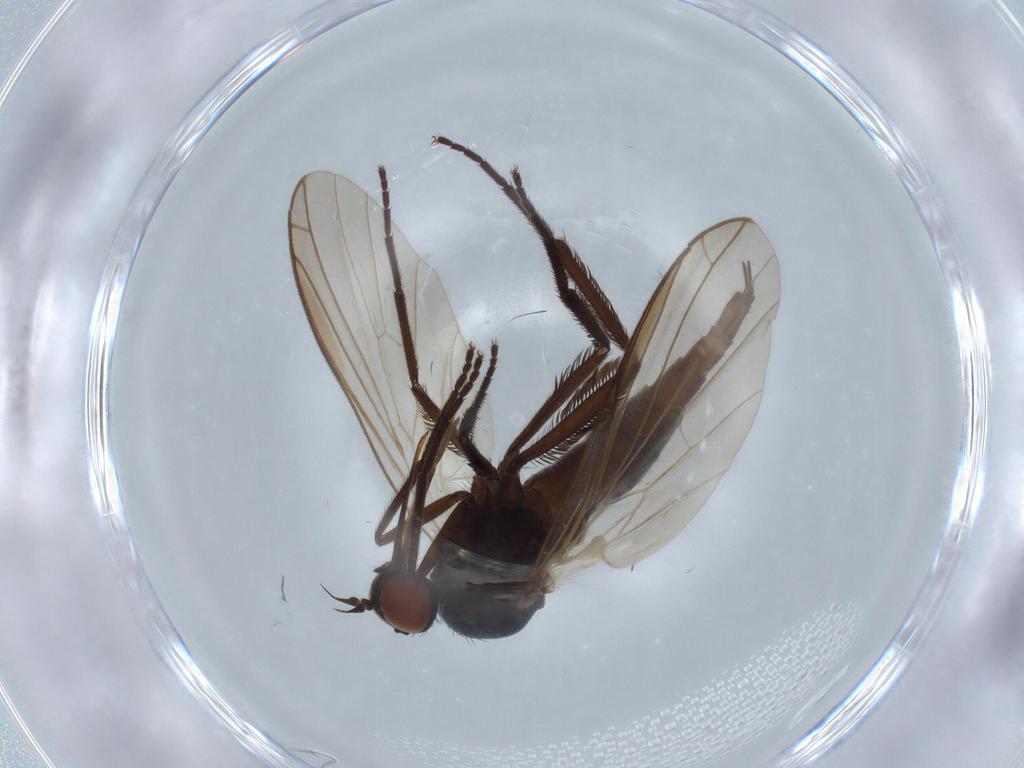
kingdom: Animalia
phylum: Arthropoda
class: Insecta
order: Diptera
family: Empididae
